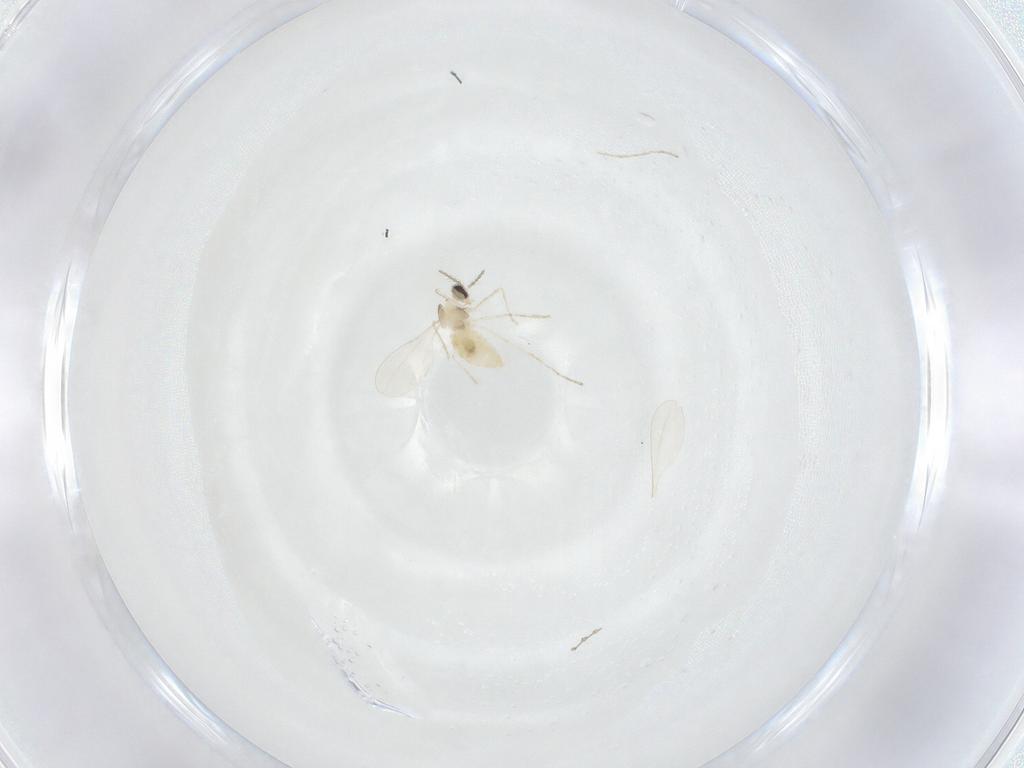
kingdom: Animalia
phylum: Arthropoda
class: Insecta
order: Diptera
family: Cecidomyiidae
